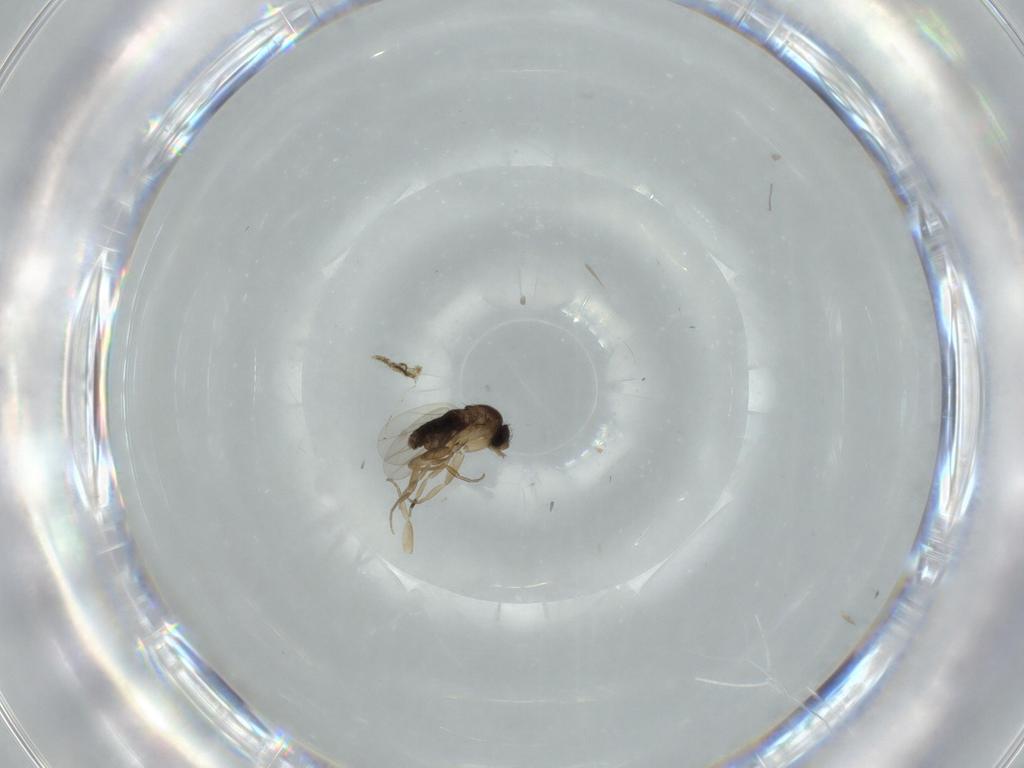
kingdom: Animalia
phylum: Arthropoda
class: Insecta
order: Diptera
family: Phoridae
